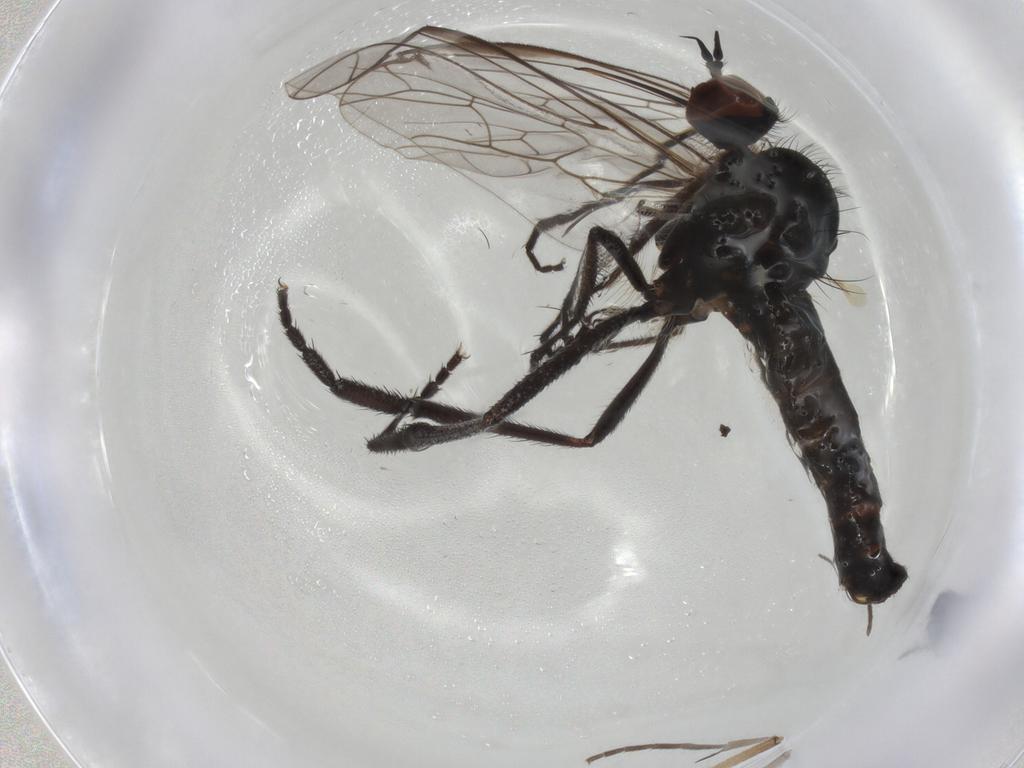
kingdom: Animalia
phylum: Arthropoda
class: Insecta
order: Diptera
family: Empididae
